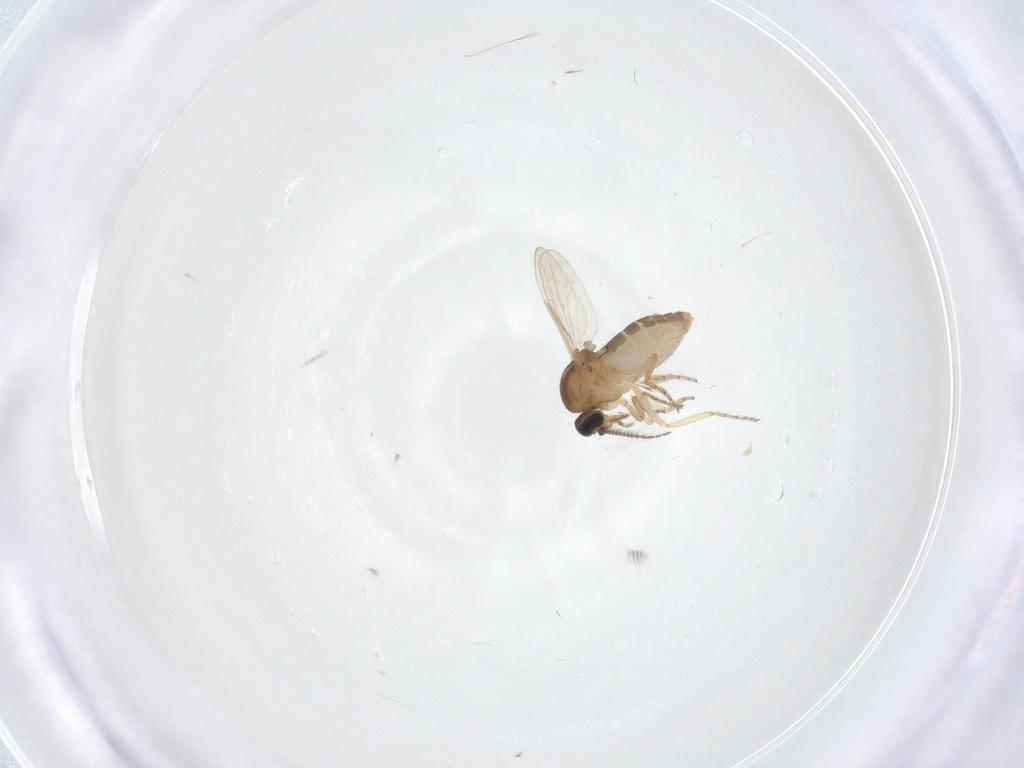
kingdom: Animalia
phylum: Arthropoda
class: Insecta
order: Diptera
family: Ceratopogonidae
